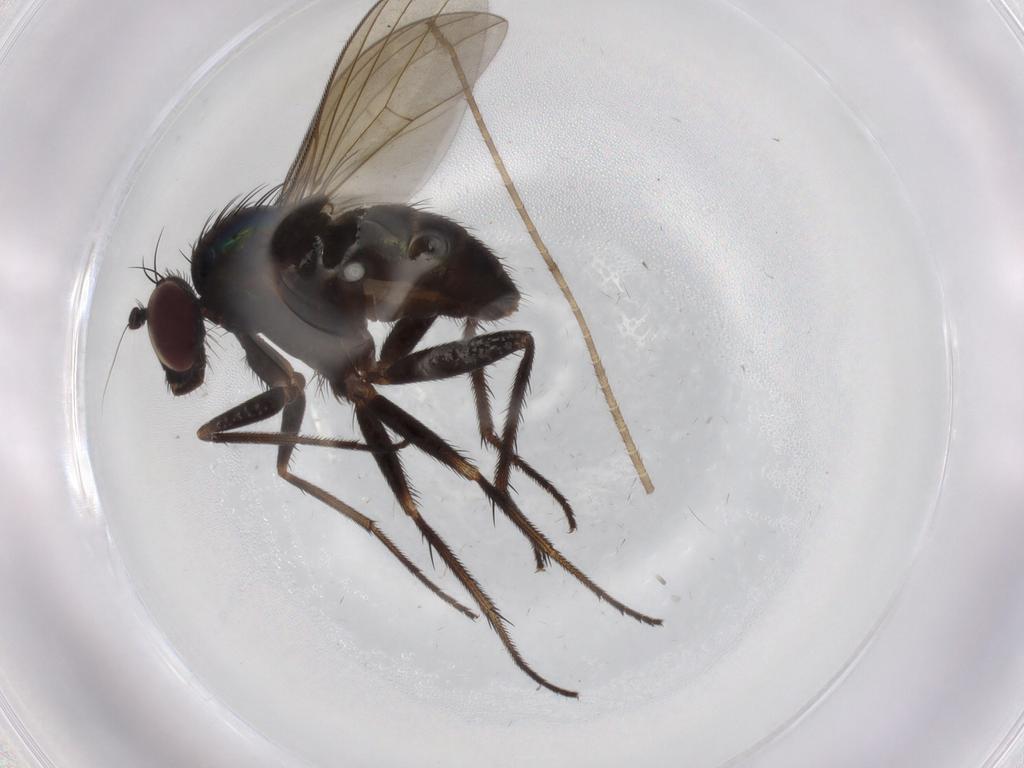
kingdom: Animalia
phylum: Arthropoda
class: Insecta
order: Diptera
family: Dolichopodidae
